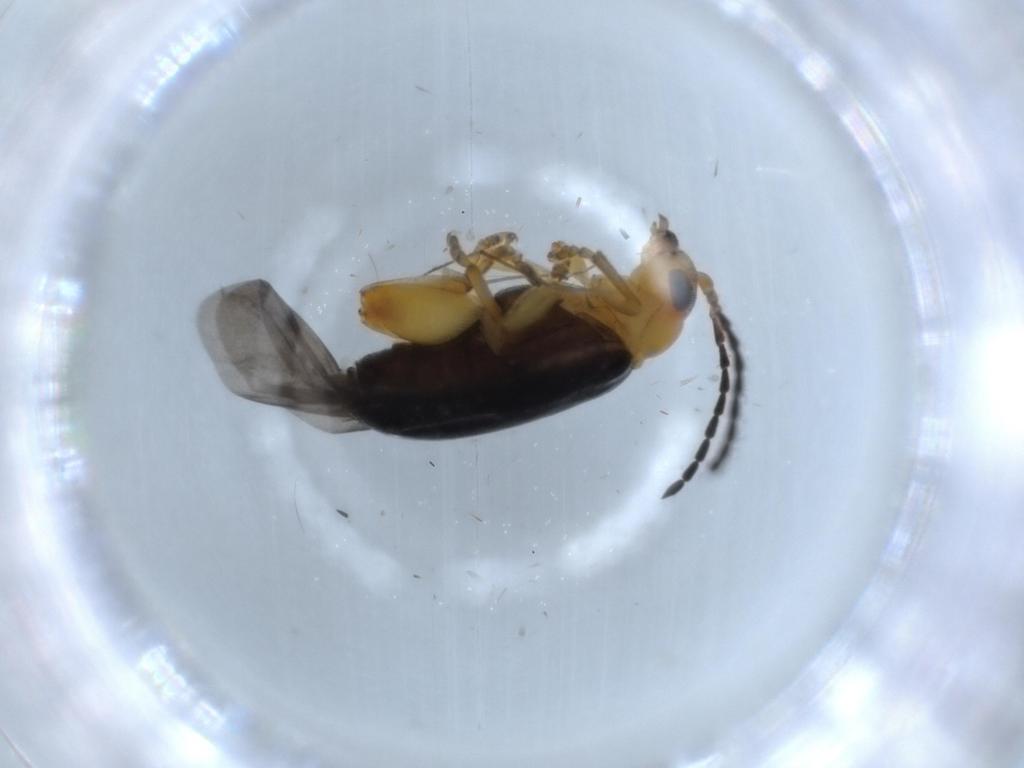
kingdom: Animalia
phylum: Arthropoda
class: Insecta
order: Coleoptera
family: Chrysomelidae
